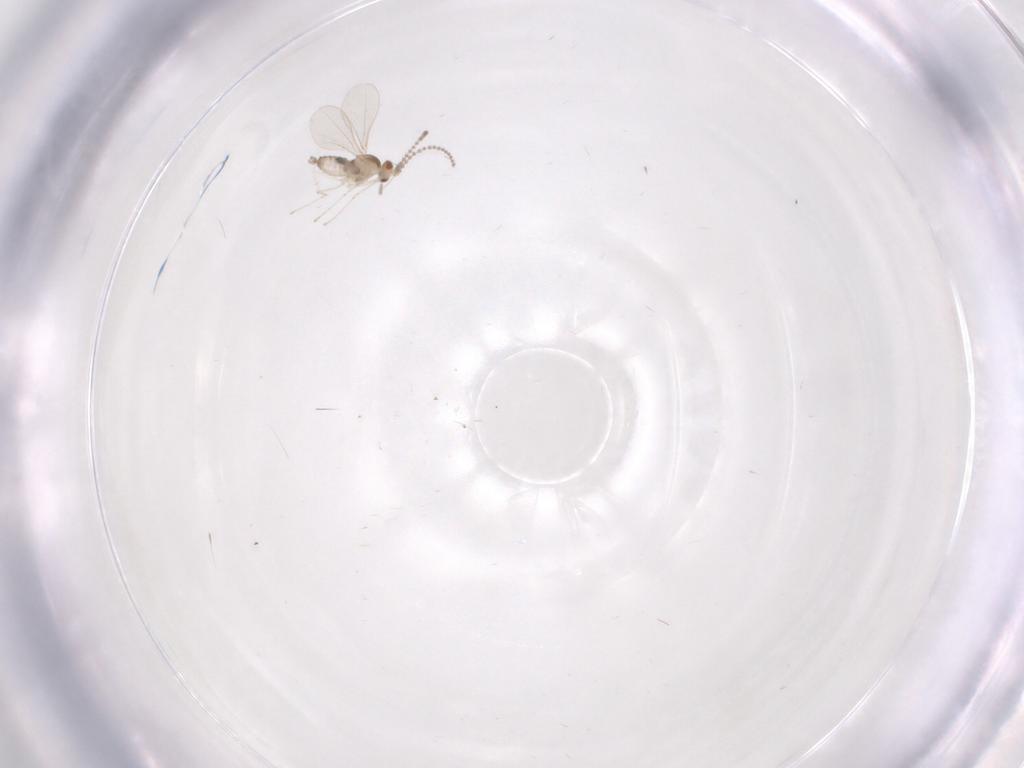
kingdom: Animalia
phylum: Arthropoda
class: Insecta
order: Diptera
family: Cecidomyiidae
